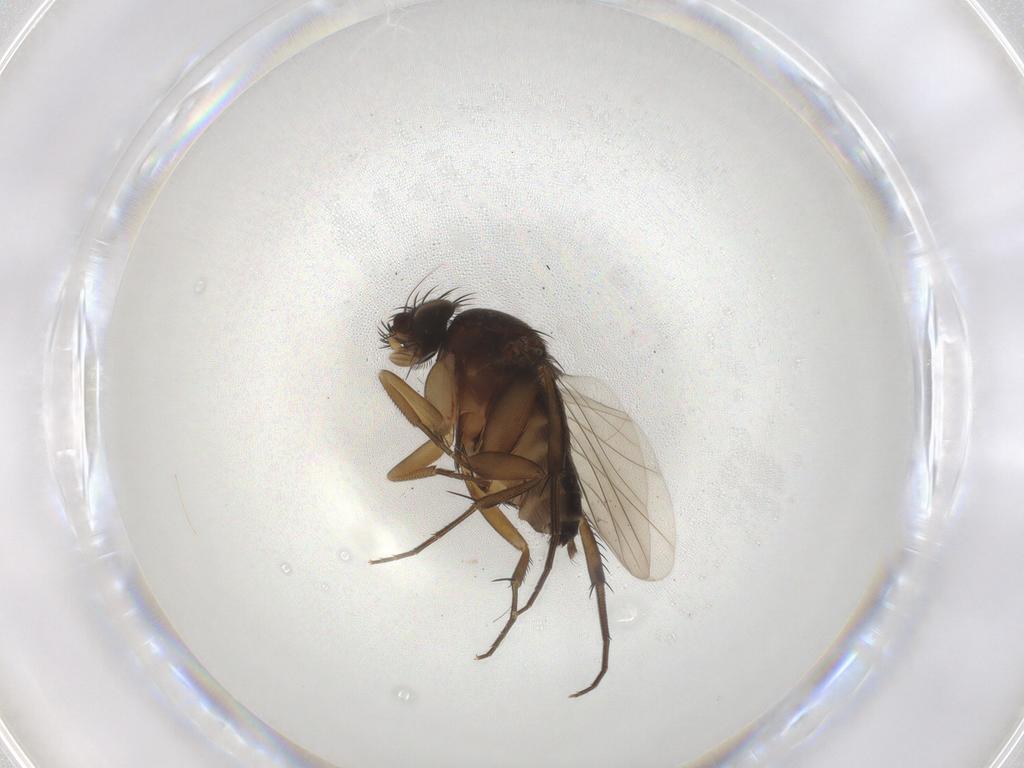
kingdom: Animalia
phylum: Arthropoda
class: Insecta
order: Diptera
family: Phoridae
